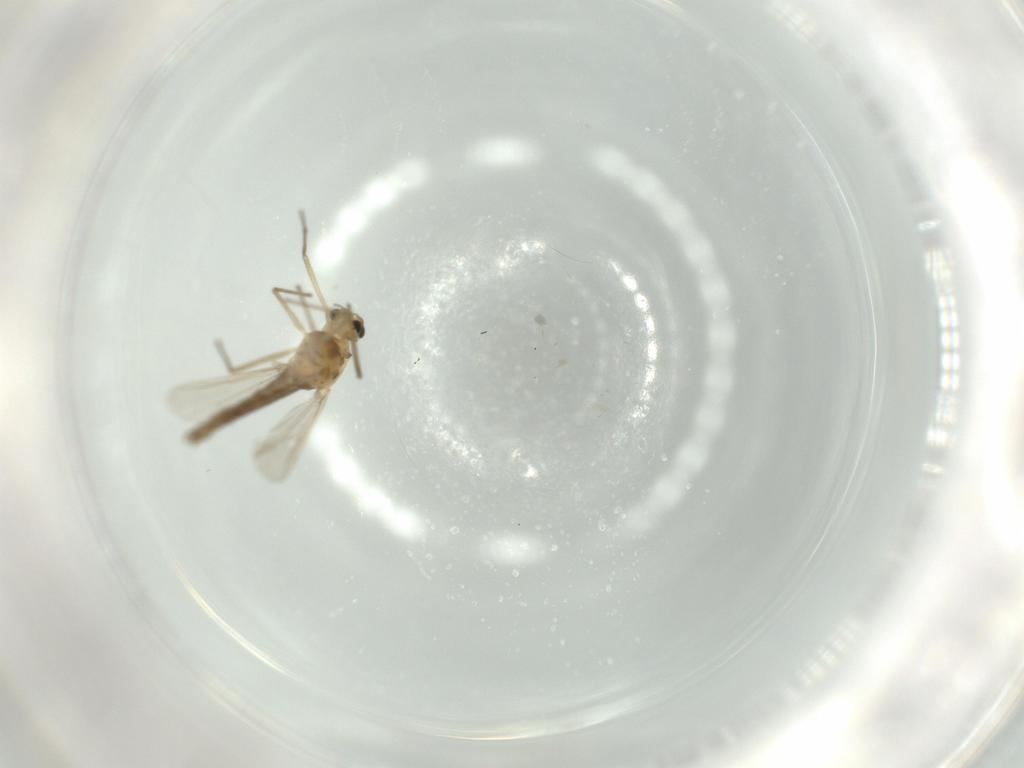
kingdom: Animalia
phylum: Arthropoda
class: Insecta
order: Diptera
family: Chironomidae
